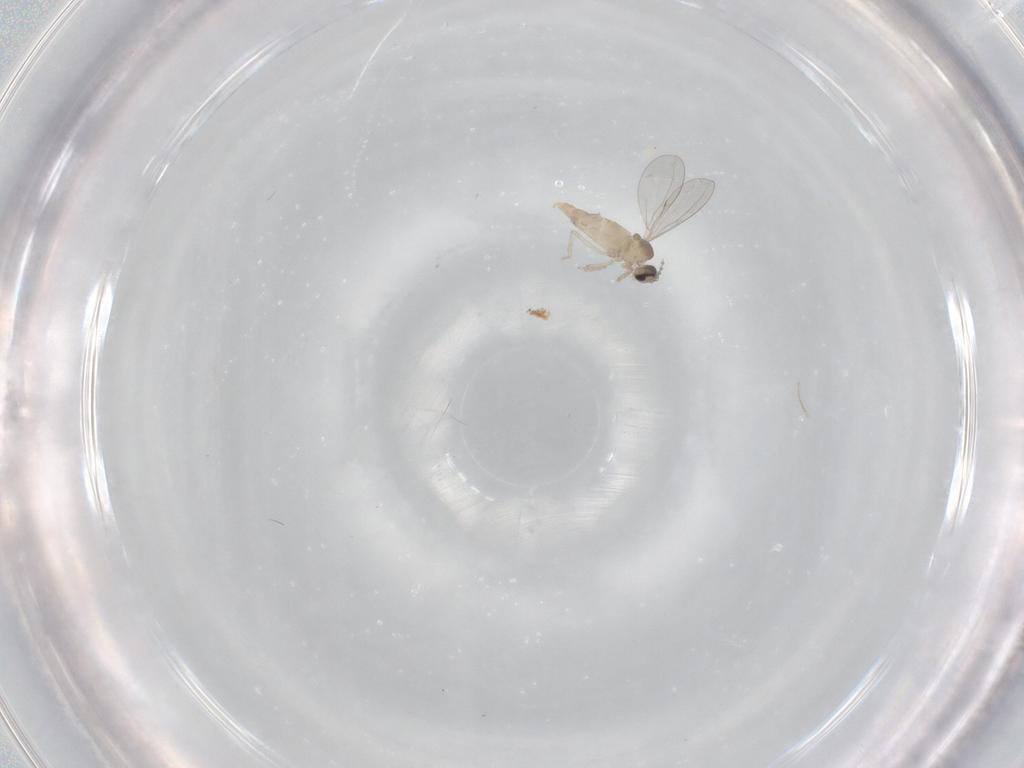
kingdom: Animalia
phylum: Arthropoda
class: Insecta
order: Diptera
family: Cecidomyiidae
